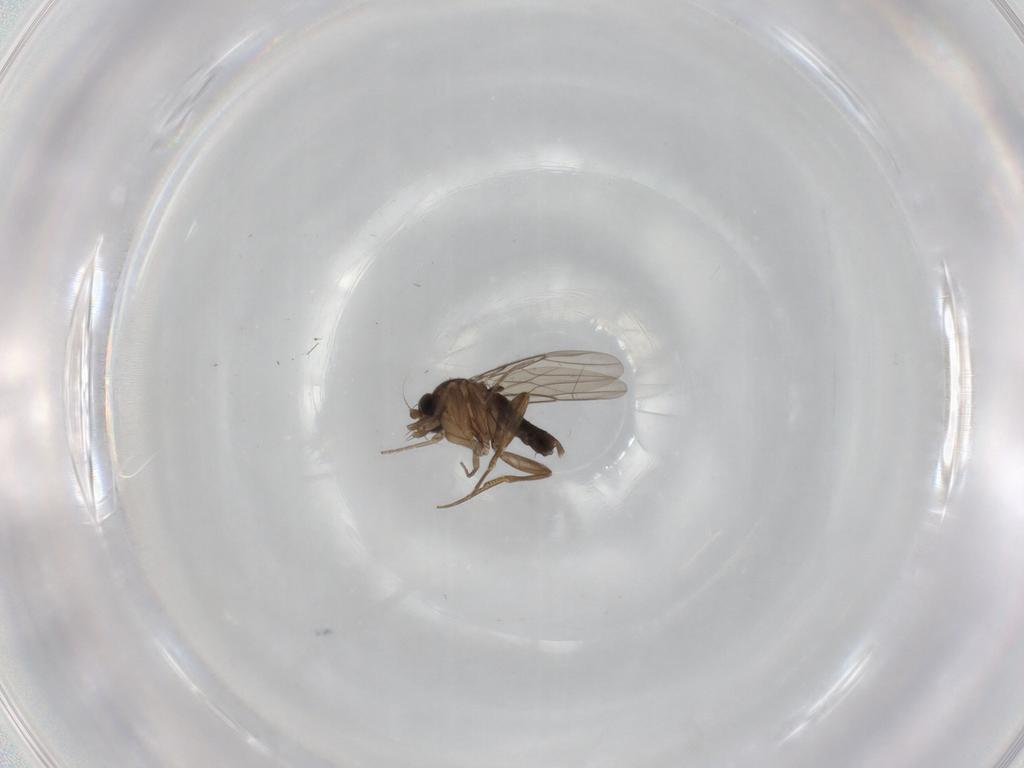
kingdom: Animalia
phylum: Arthropoda
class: Insecta
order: Diptera
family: Phoridae
